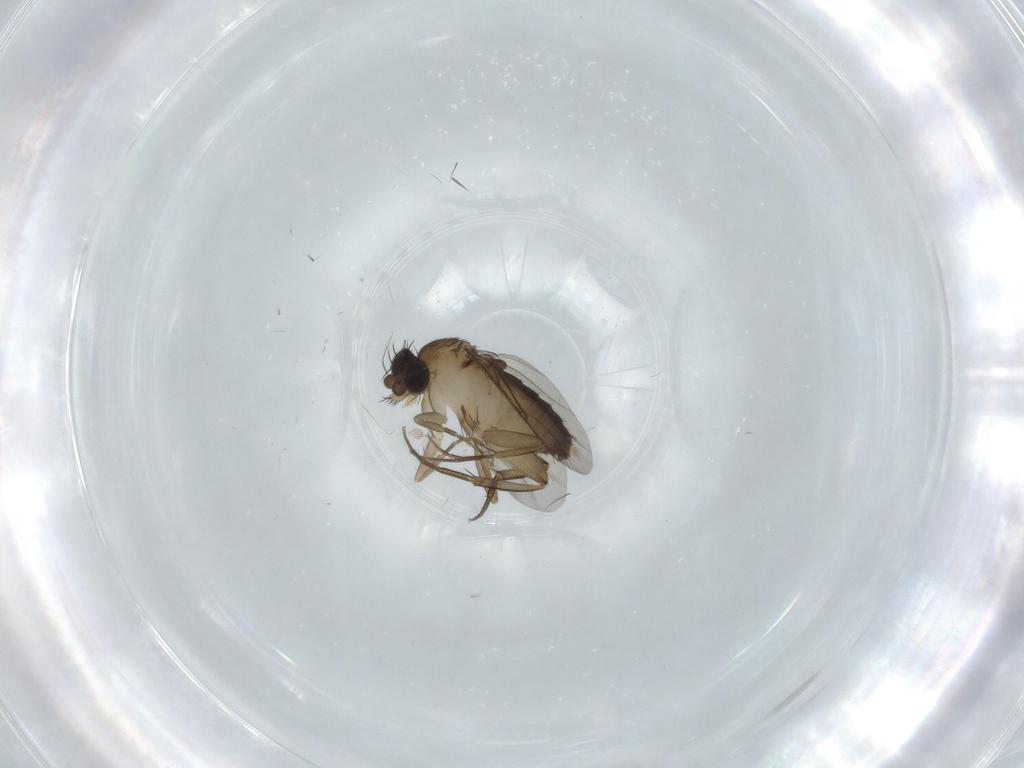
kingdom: Animalia
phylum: Arthropoda
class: Insecta
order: Diptera
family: Phoridae
